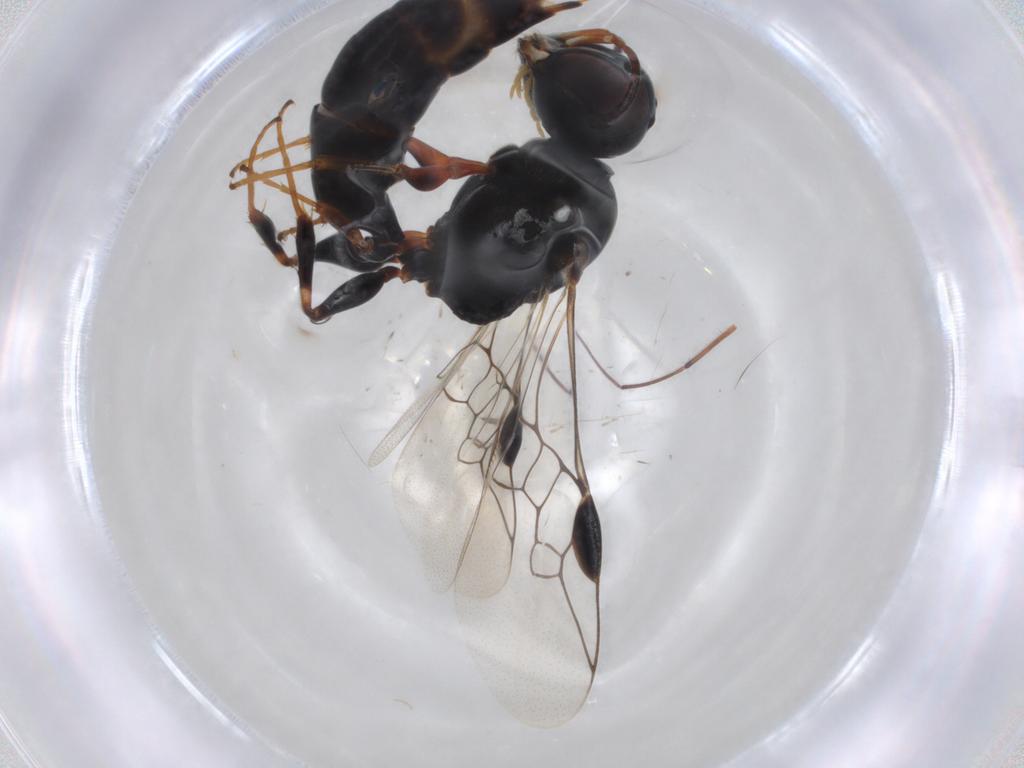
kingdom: Animalia
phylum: Arthropoda
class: Insecta
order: Hymenoptera
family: Pemphredonidae
